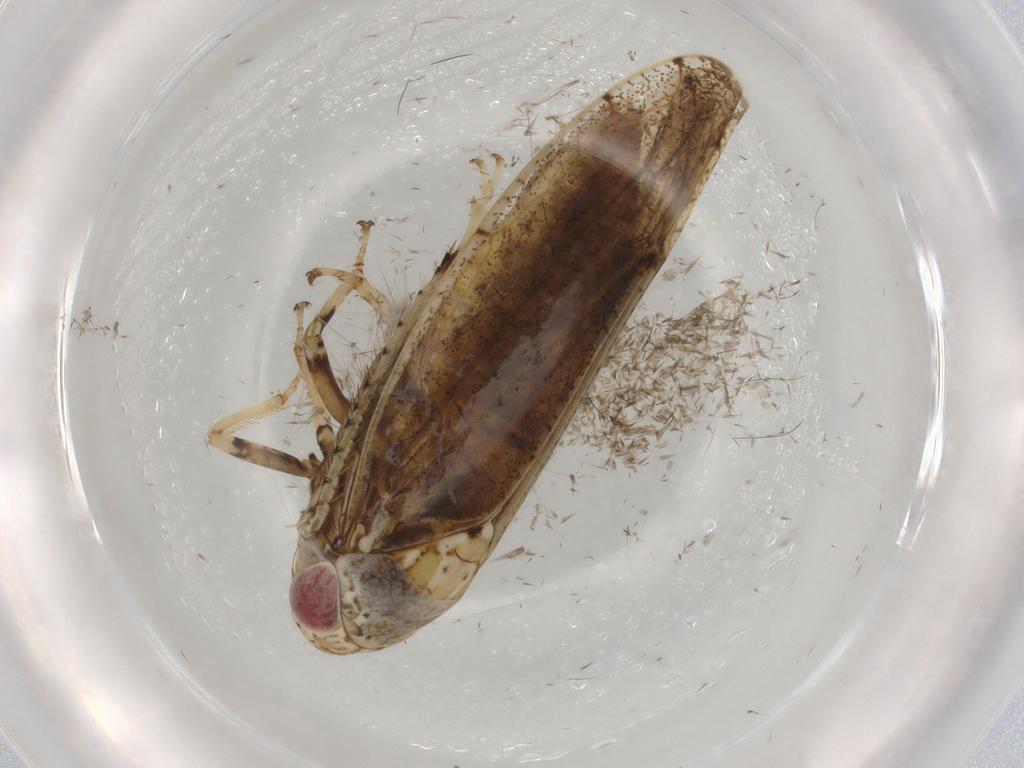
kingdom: Animalia
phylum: Arthropoda
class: Insecta
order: Hemiptera
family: Cicadellidae
